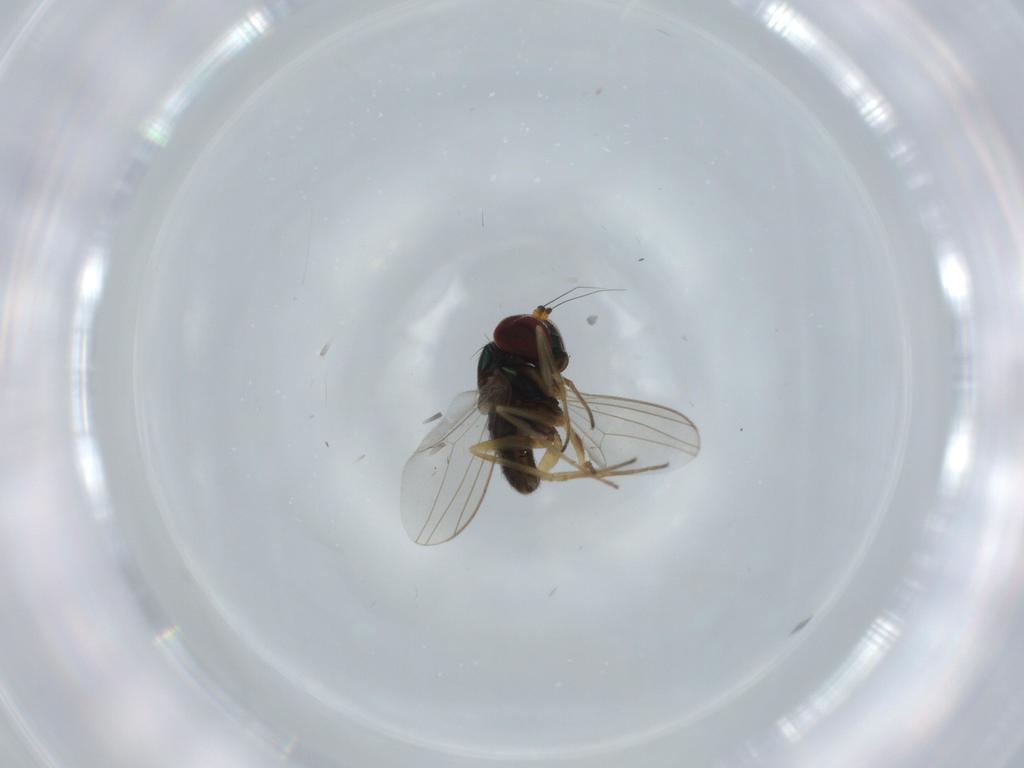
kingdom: Animalia
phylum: Arthropoda
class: Insecta
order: Diptera
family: Dolichopodidae
